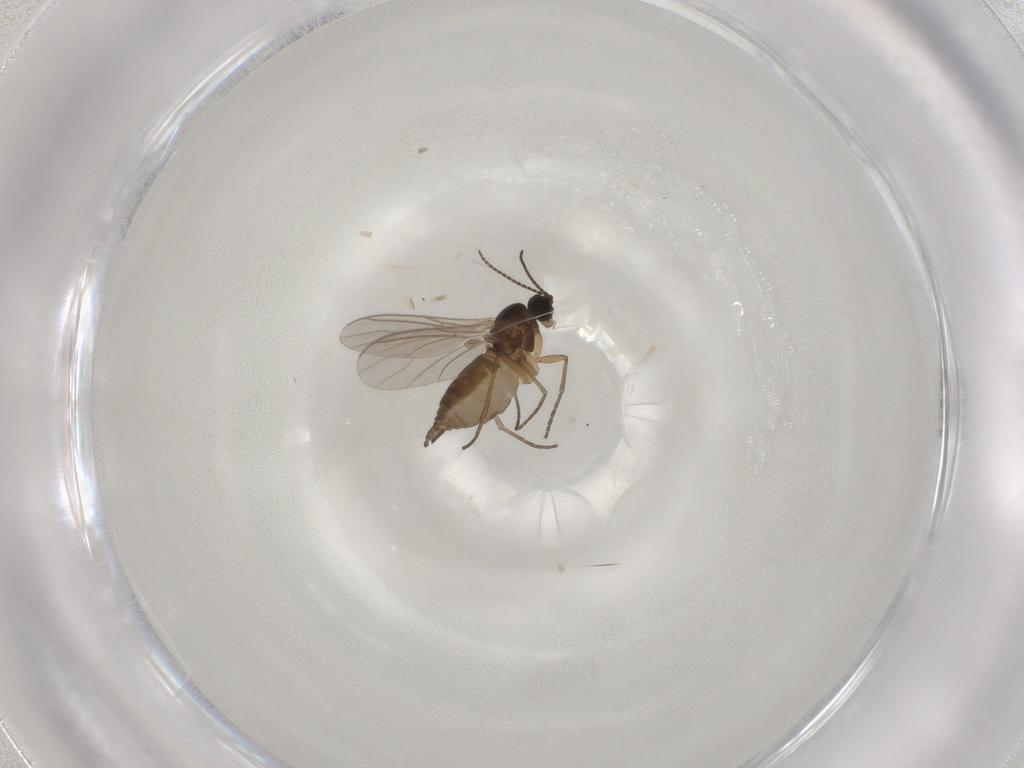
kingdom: Animalia
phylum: Arthropoda
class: Insecta
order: Diptera
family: Sciaridae
